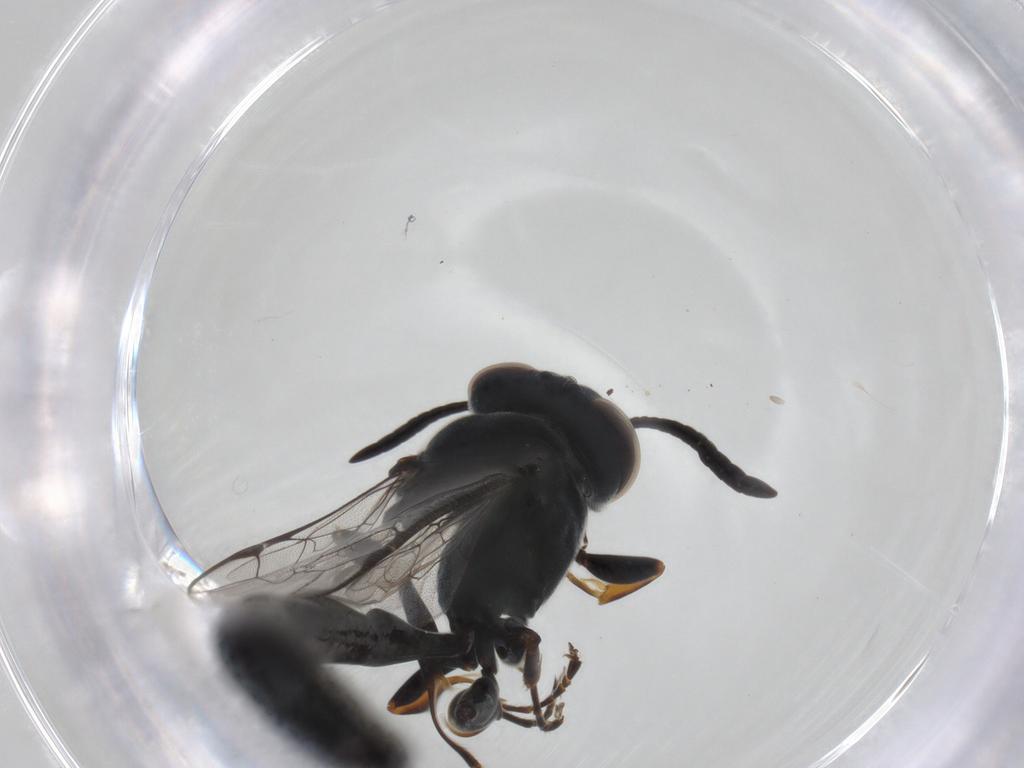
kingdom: Animalia
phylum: Arthropoda
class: Insecta
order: Hymenoptera
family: Crabronidae
